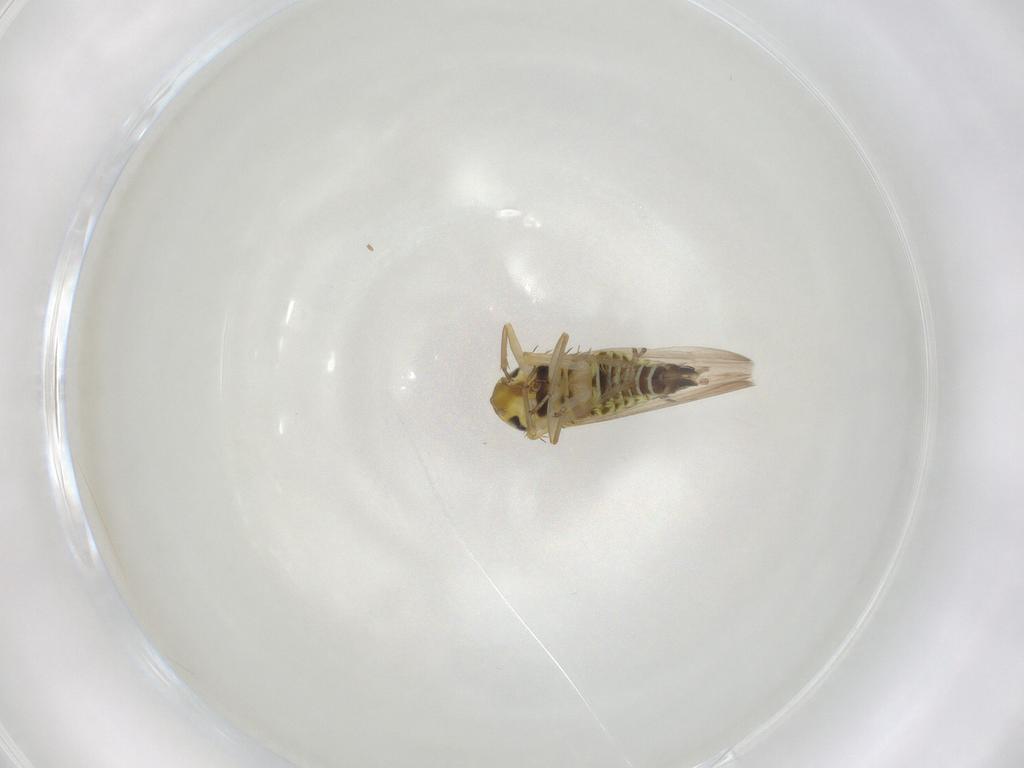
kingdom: Animalia
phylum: Arthropoda
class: Insecta
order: Hemiptera
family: Cicadellidae
